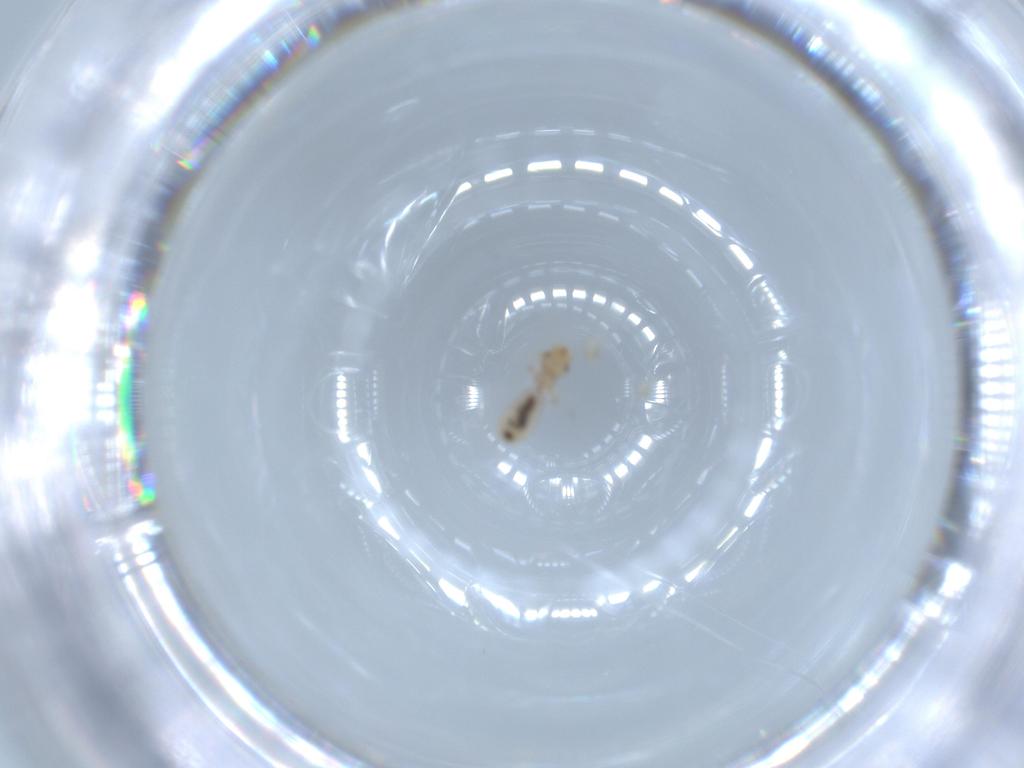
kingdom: Animalia
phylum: Arthropoda
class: Insecta
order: Psocodea
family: Liposcelididae
